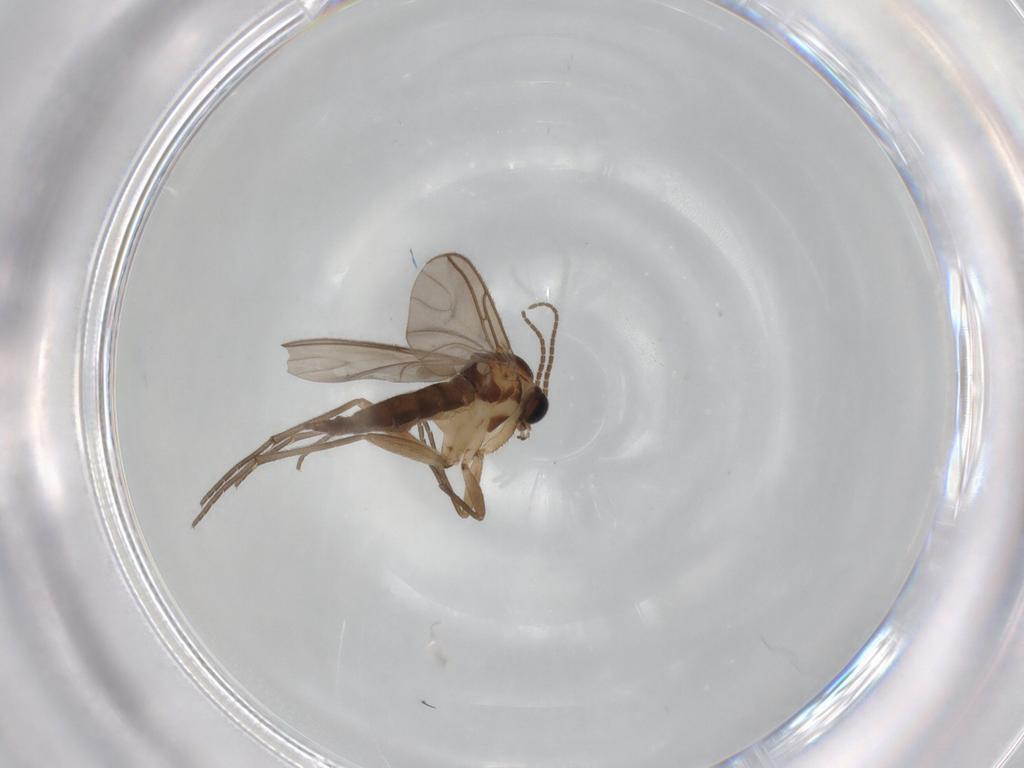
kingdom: Animalia
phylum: Arthropoda
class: Insecta
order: Diptera
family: Sciaridae
